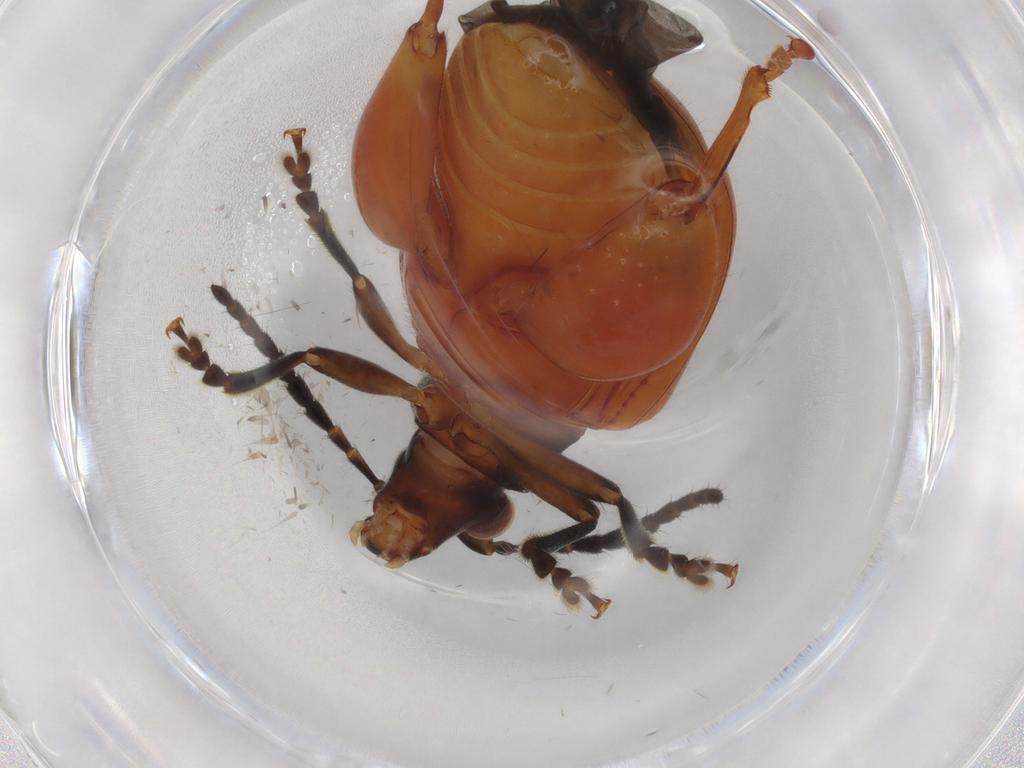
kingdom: Animalia
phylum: Arthropoda
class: Insecta
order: Coleoptera
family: Chrysomelidae
